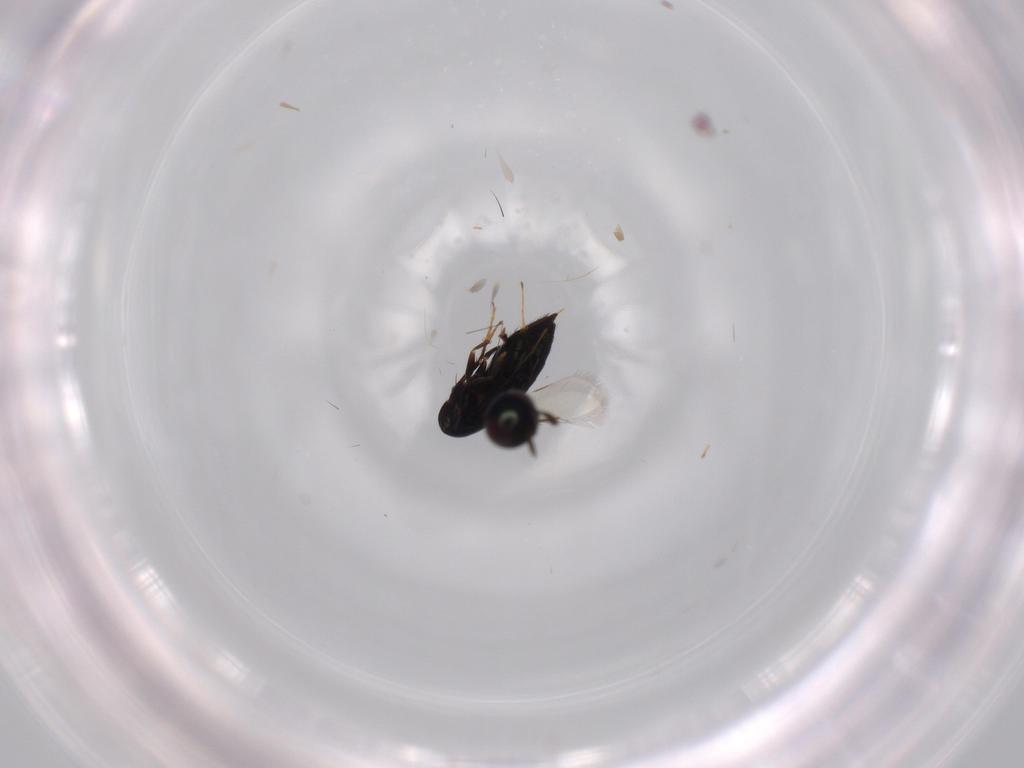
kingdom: Animalia
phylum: Arthropoda
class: Insecta
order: Hymenoptera
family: Signiphoridae
